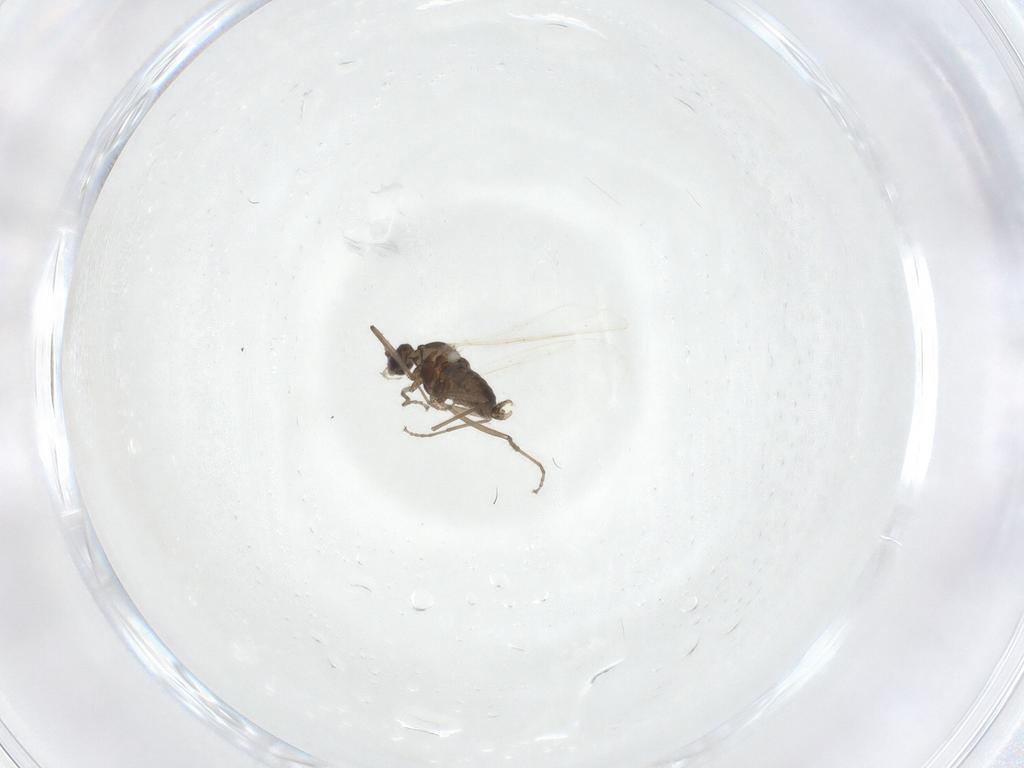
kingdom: Animalia
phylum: Arthropoda
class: Insecta
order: Diptera
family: Cecidomyiidae
